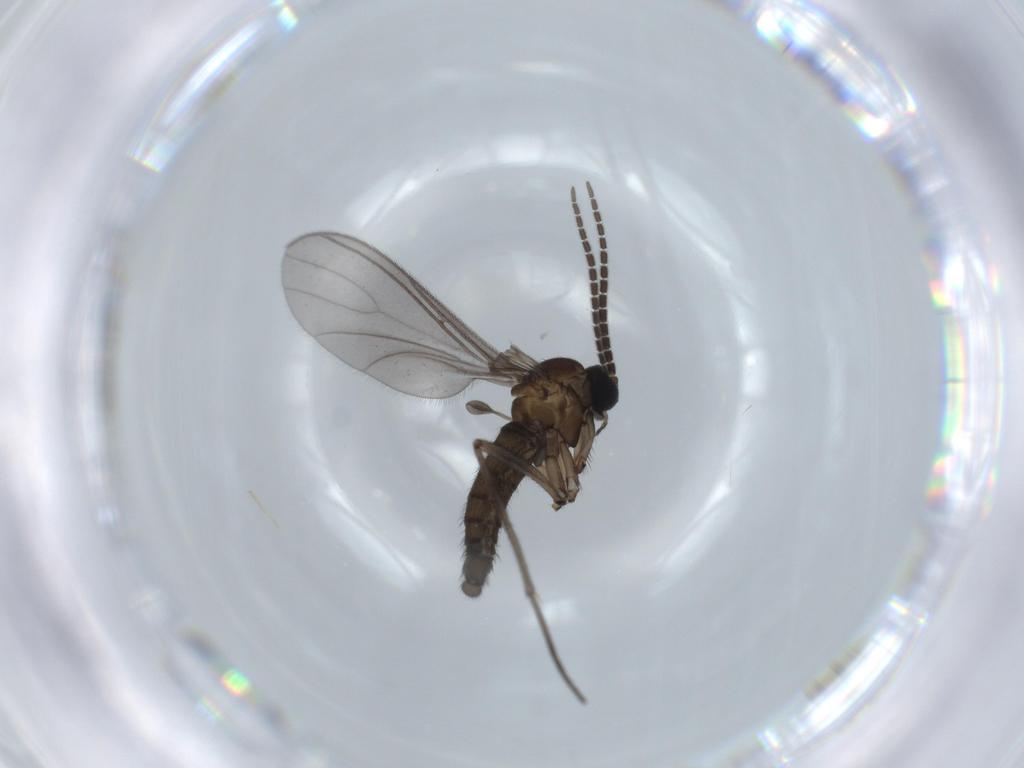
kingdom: Animalia
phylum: Arthropoda
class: Insecta
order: Diptera
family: Sciaridae
